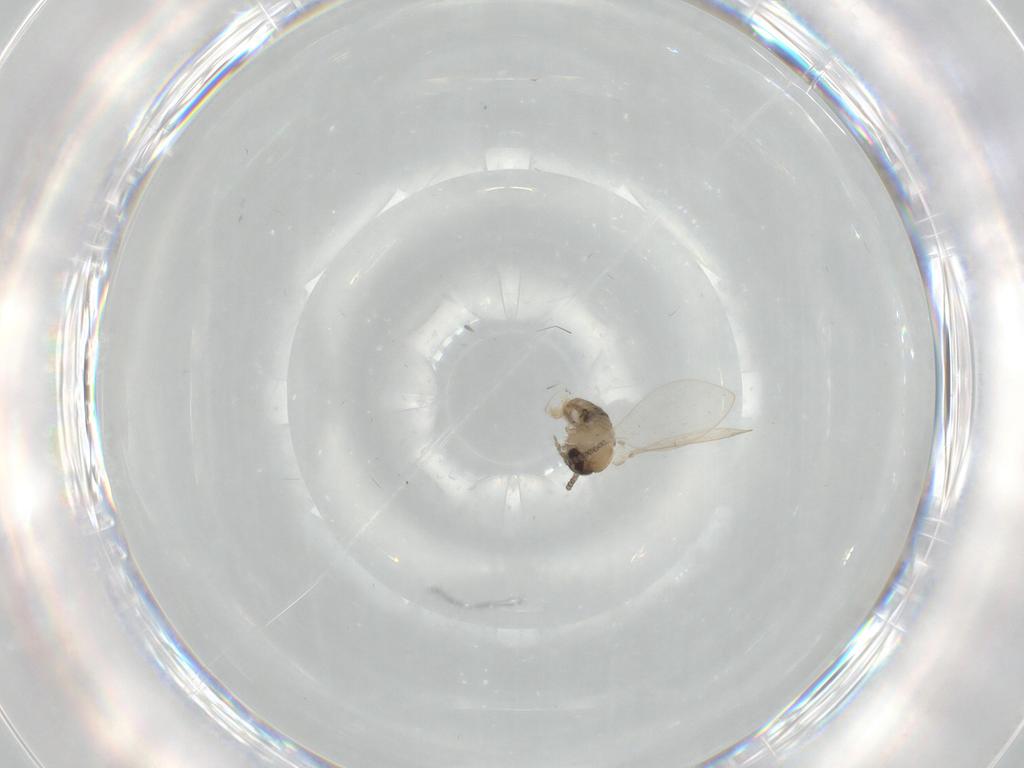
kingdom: Animalia
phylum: Arthropoda
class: Insecta
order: Diptera
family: Psychodidae
